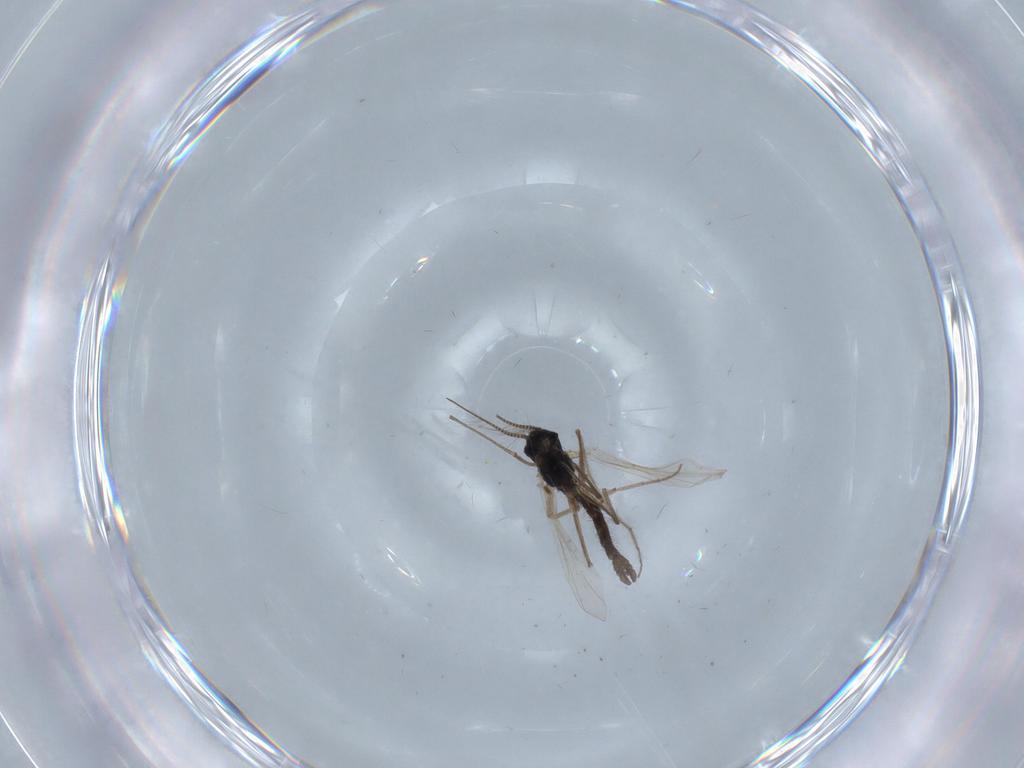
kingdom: Animalia
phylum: Arthropoda
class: Insecta
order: Diptera
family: Chironomidae
